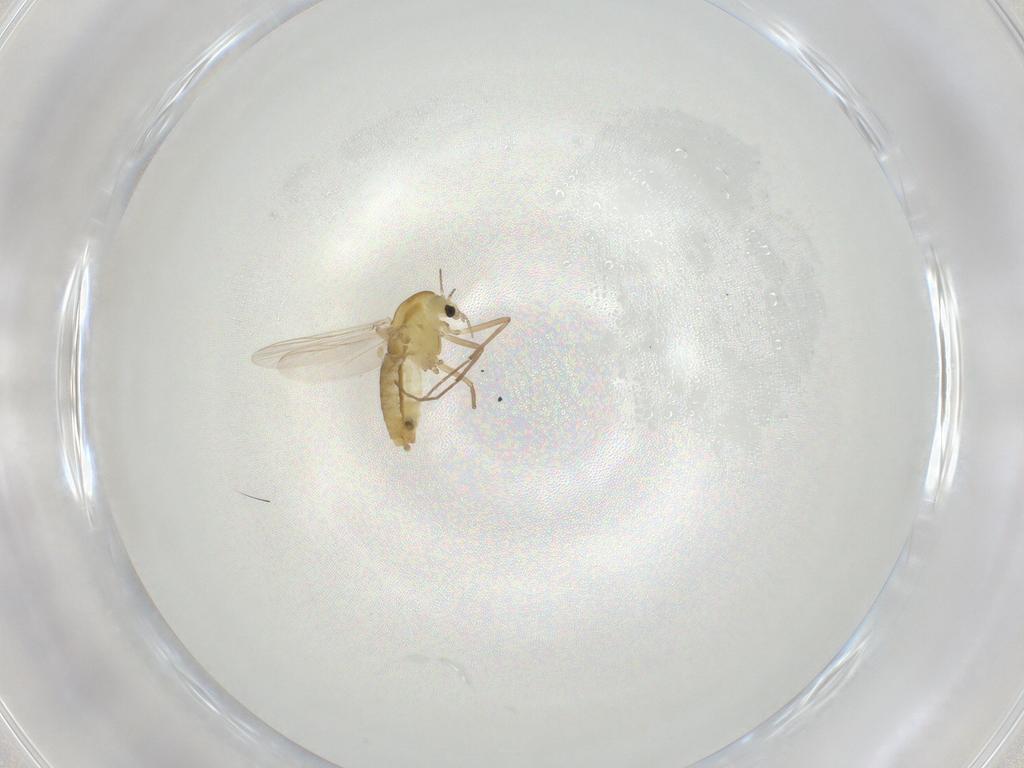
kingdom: Animalia
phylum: Arthropoda
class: Insecta
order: Diptera
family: Chironomidae
